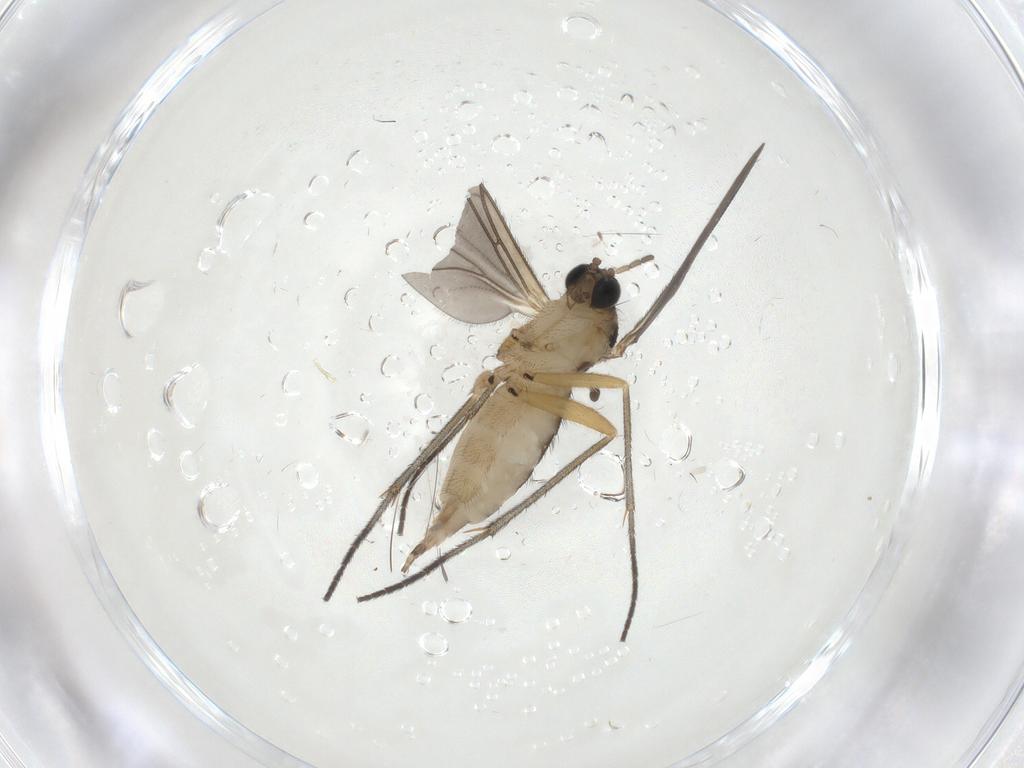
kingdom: Animalia
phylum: Arthropoda
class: Insecta
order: Diptera
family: Sciaridae
